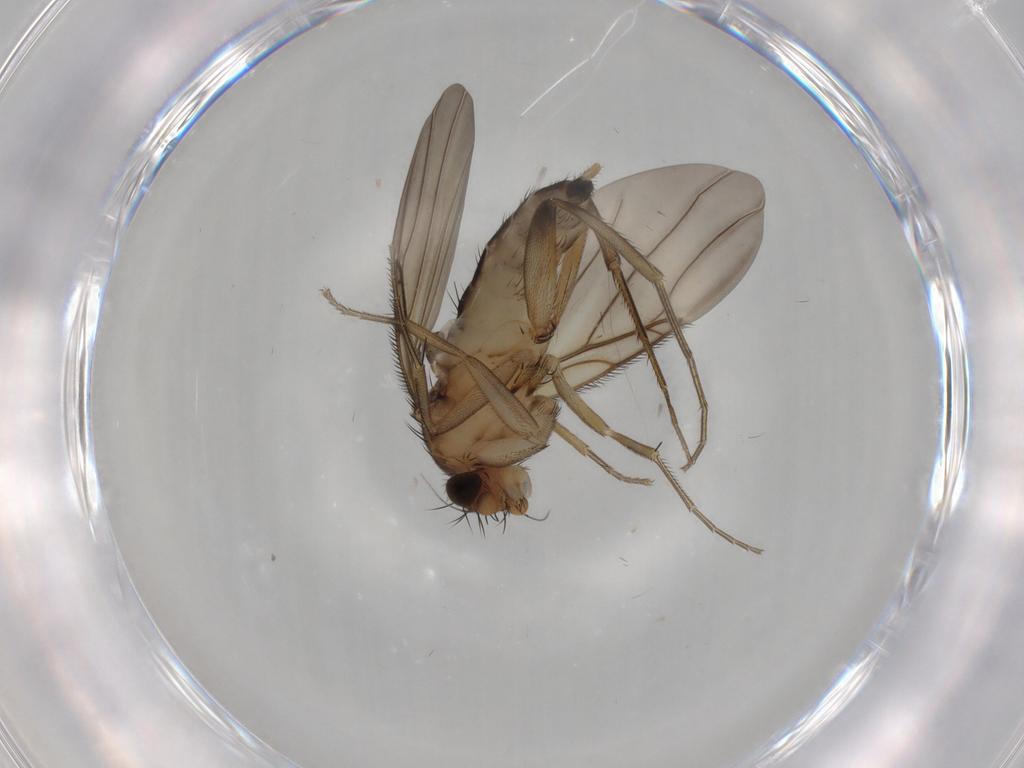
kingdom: Animalia
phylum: Arthropoda
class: Insecta
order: Diptera
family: Phoridae
